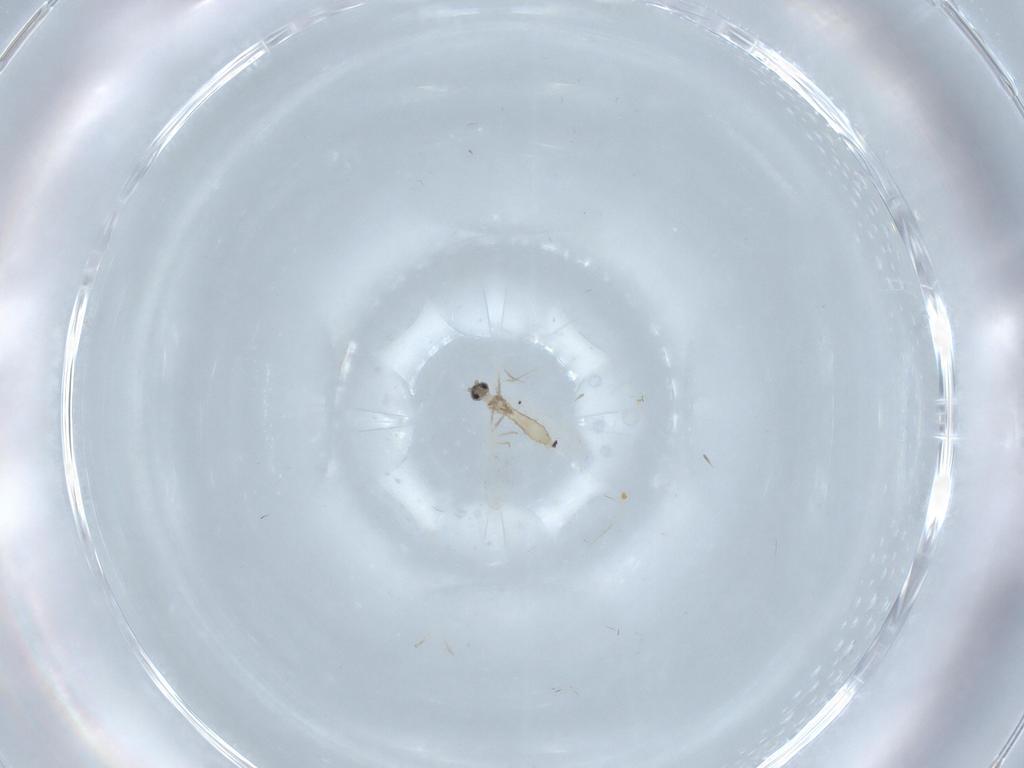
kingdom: Animalia
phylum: Arthropoda
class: Insecta
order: Diptera
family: Cecidomyiidae
